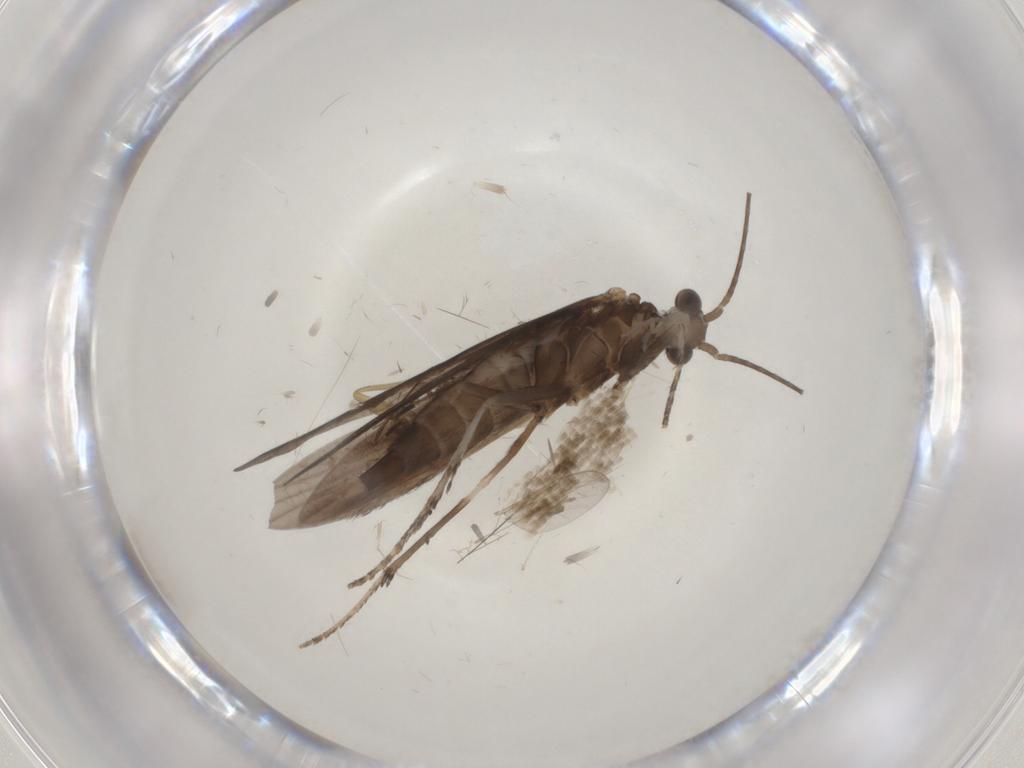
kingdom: Animalia
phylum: Arthropoda
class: Insecta
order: Trichoptera
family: Xiphocentronidae
